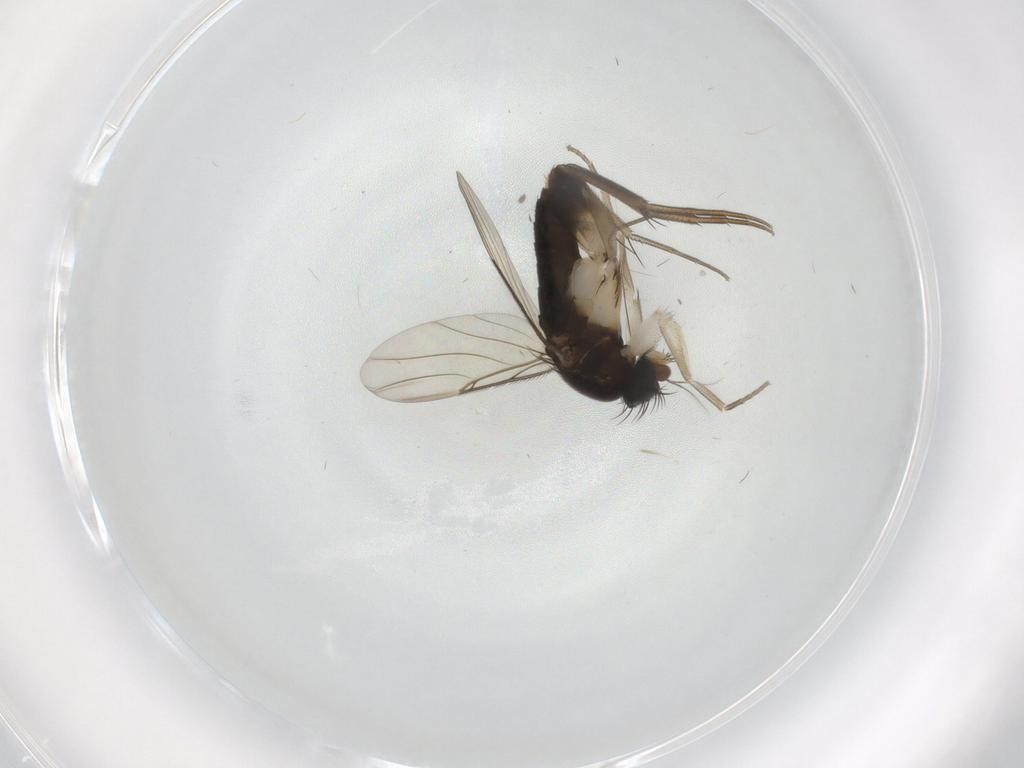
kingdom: Animalia
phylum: Arthropoda
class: Insecta
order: Diptera
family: Phoridae
